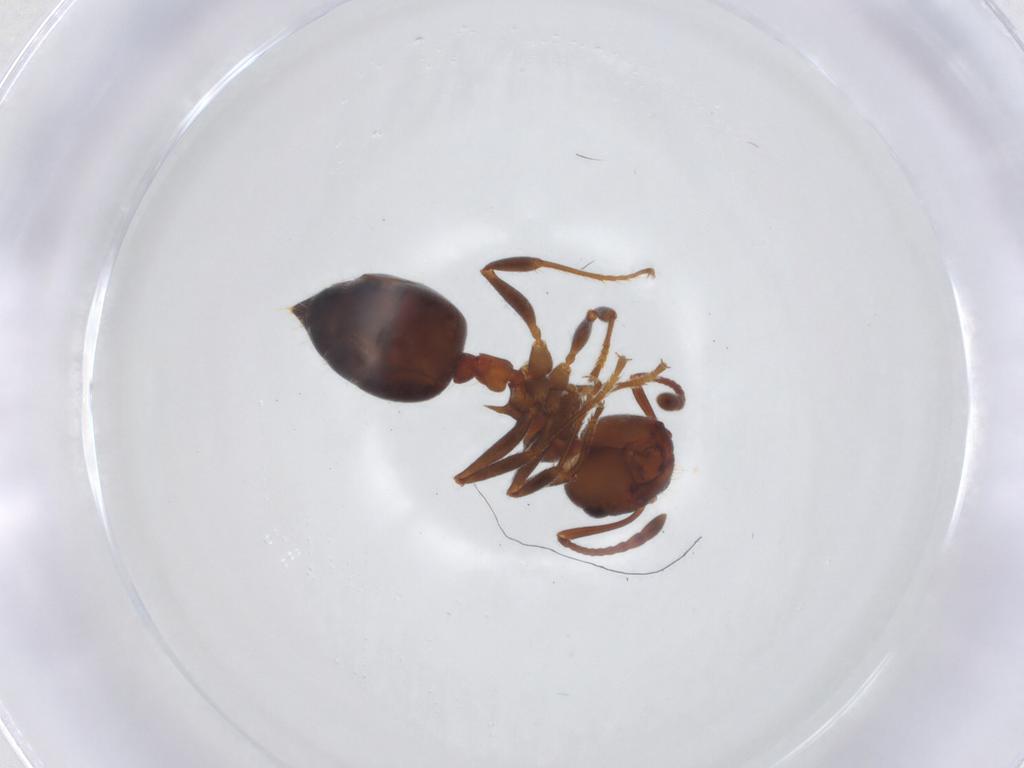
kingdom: Animalia
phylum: Arthropoda
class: Insecta
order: Hymenoptera
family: Formicidae
